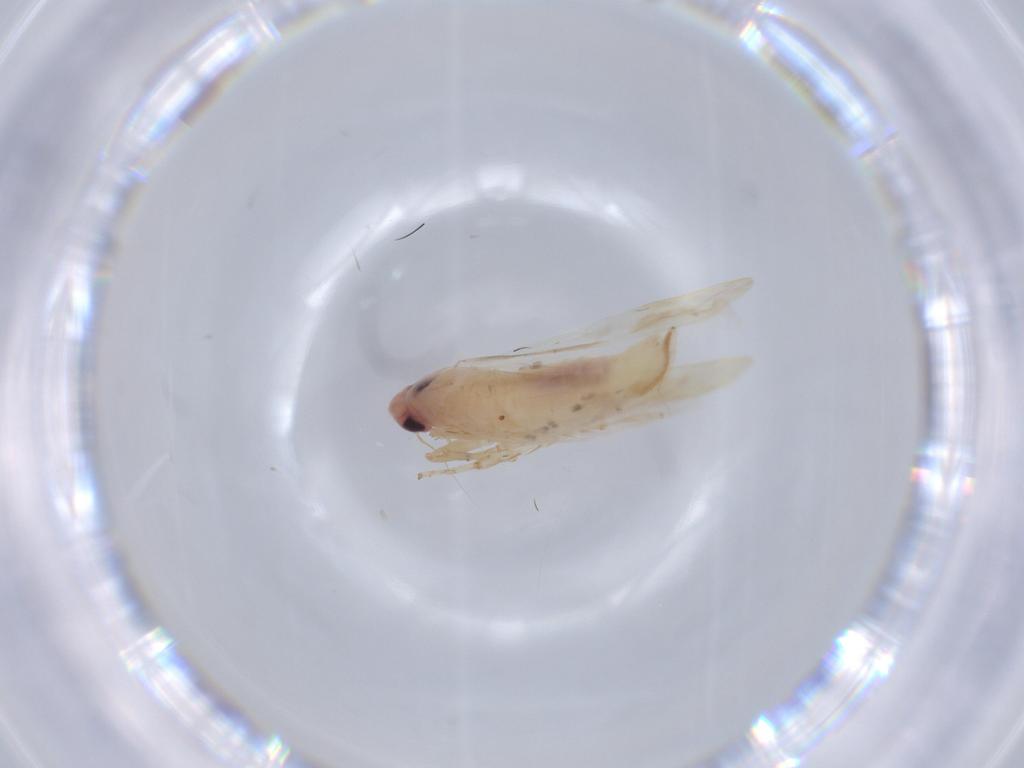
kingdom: Animalia
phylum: Arthropoda
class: Insecta
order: Hemiptera
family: Cicadellidae
